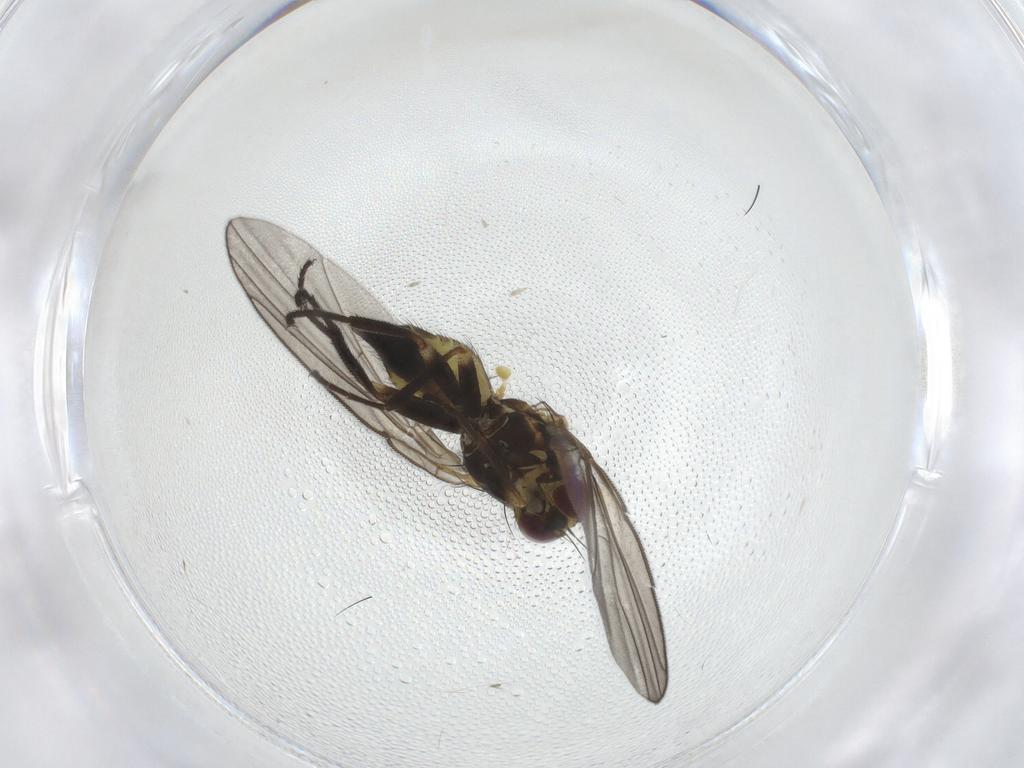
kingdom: Animalia
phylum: Arthropoda
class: Insecta
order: Diptera
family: Agromyzidae
